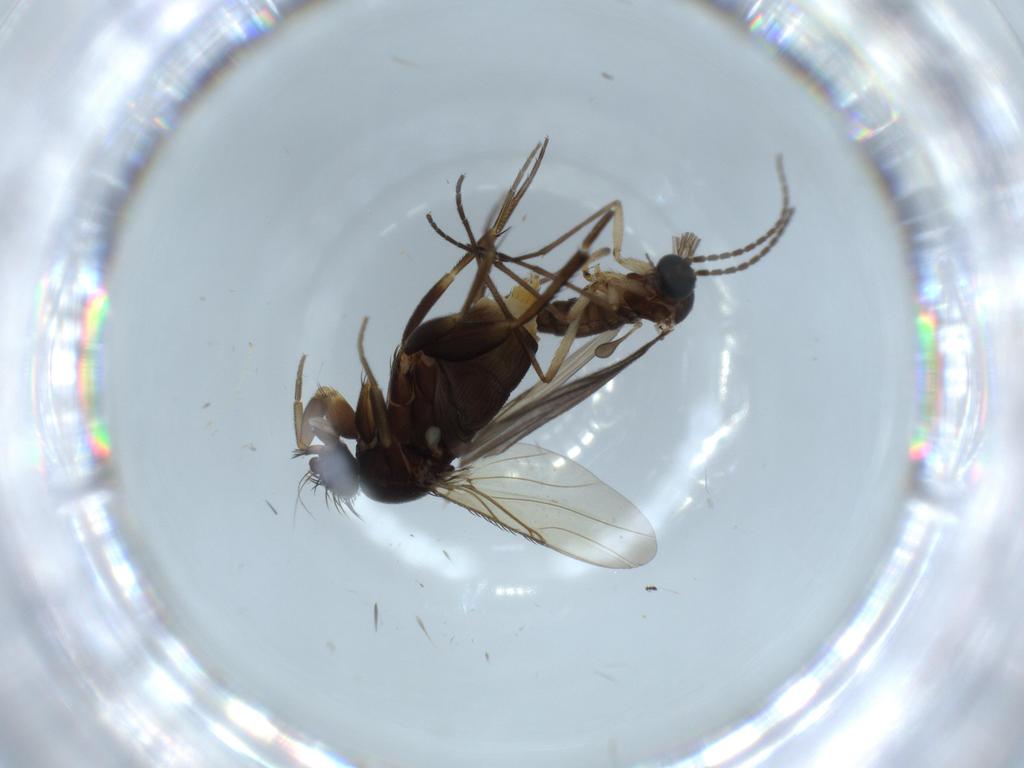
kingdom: Animalia
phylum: Arthropoda
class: Insecta
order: Diptera
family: Phoridae
